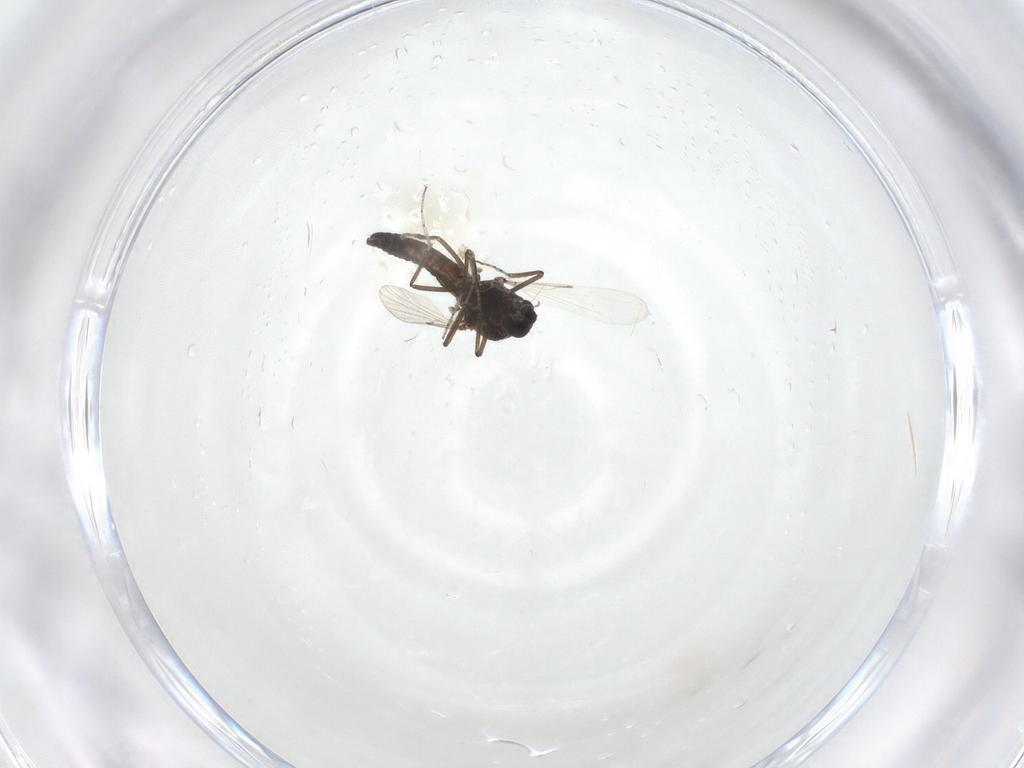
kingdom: Animalia
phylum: Arthropoda
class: Insecta
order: Diptera
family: Ceratopogonidae
